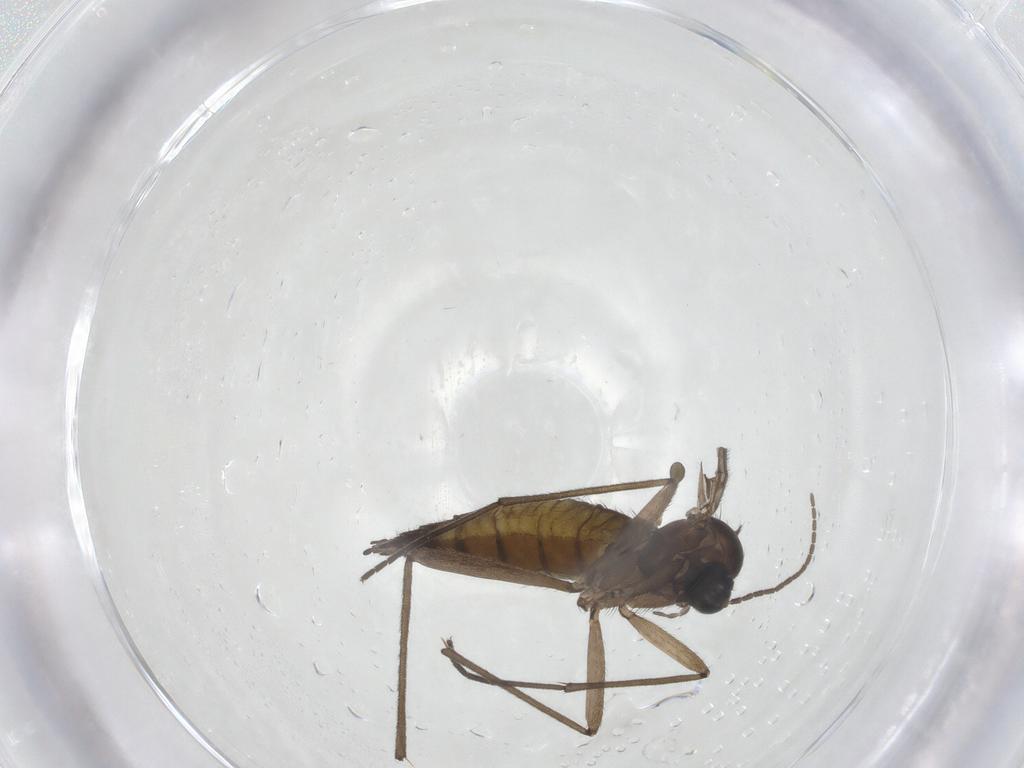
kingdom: Animalia
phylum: Arthropoda
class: Insecta
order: Diptera
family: Sciaridae
